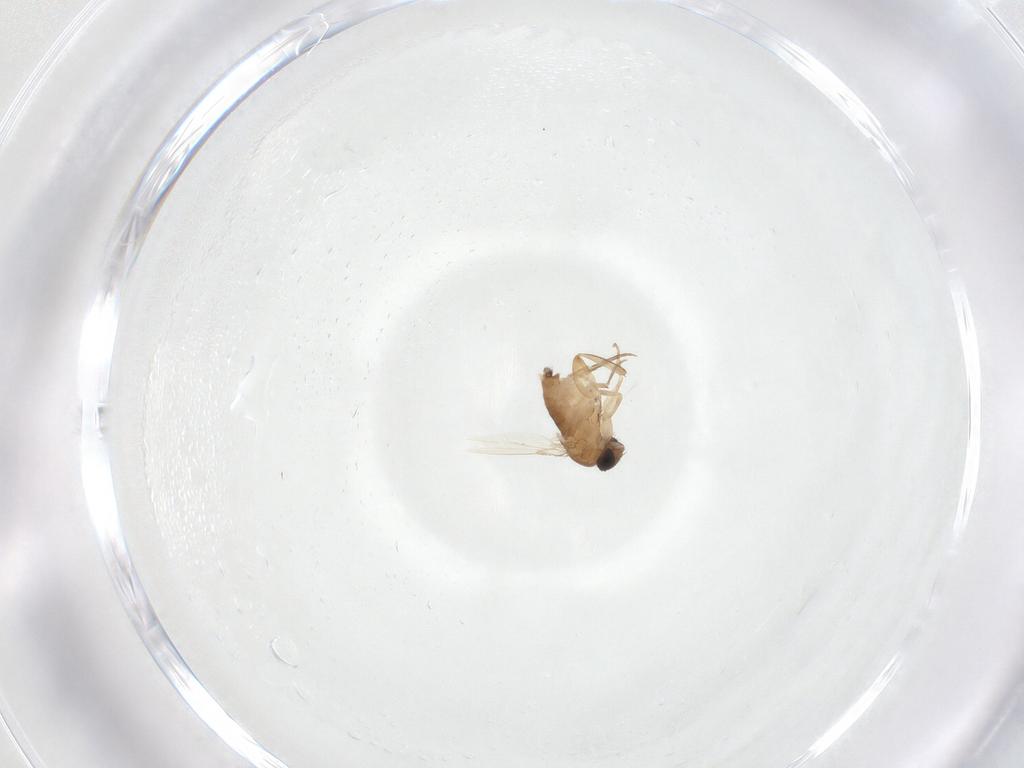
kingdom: Animalia
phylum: Arthropoda
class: Insecta
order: Diptera
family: Phoridae
